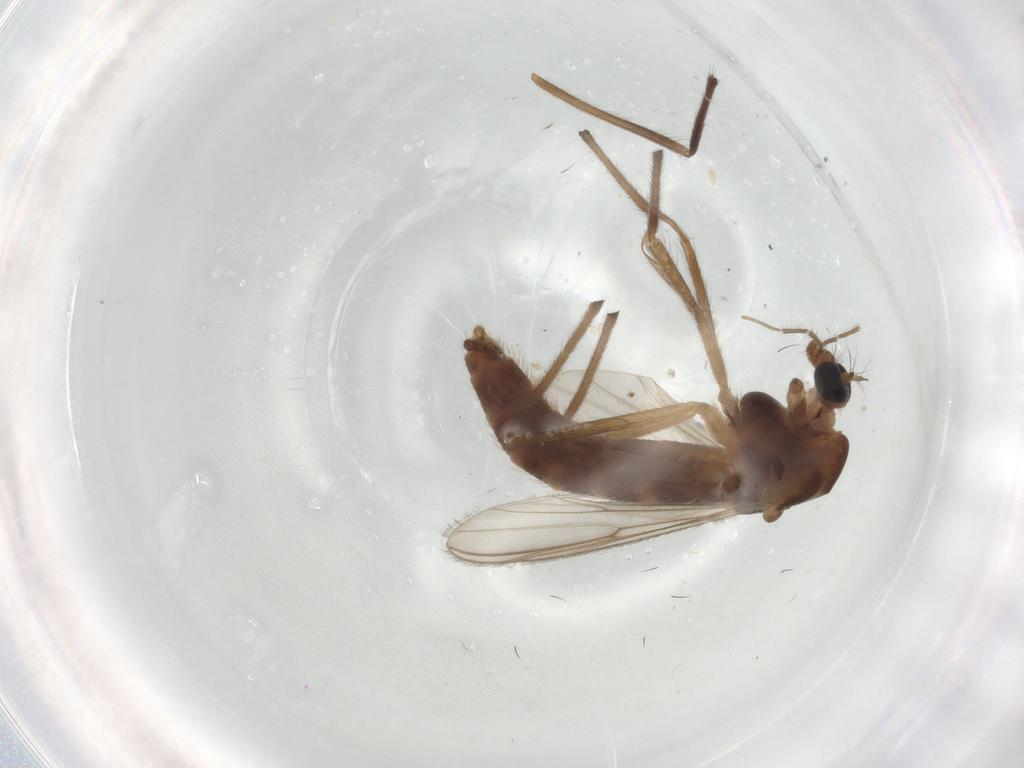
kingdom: Animalia
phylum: Arthropoda
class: Insecta
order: Diptera
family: Chironomidae
